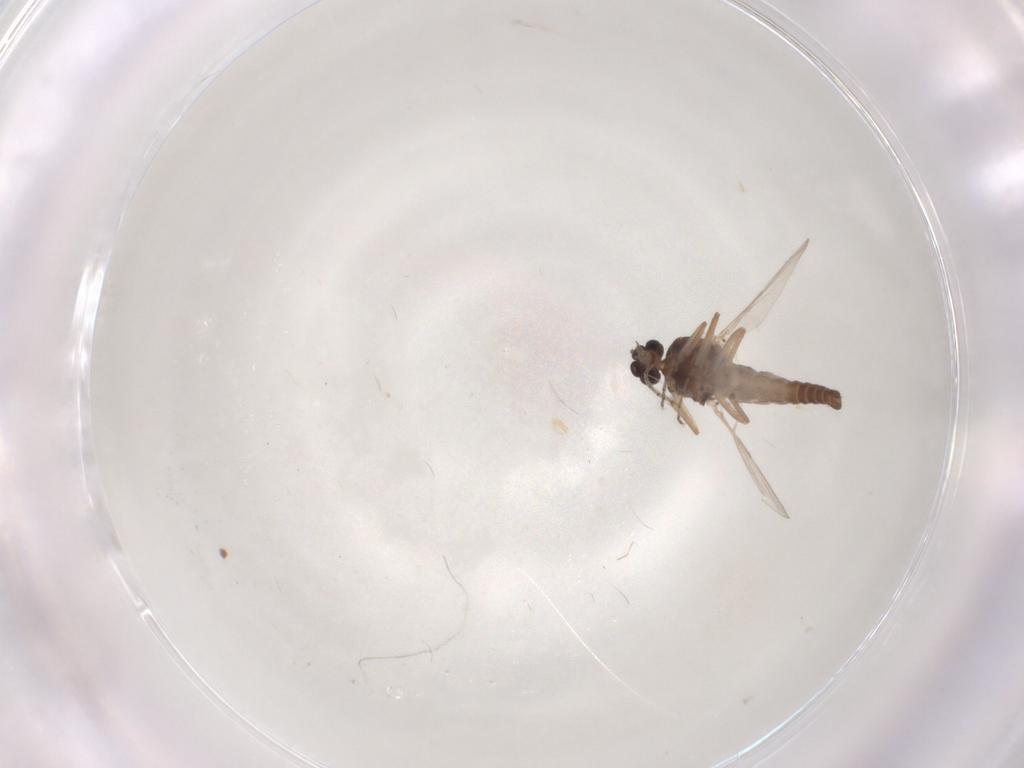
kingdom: Animalia
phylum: Arthropoda
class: Insecta
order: Diptera
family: Ceratopogonidae
